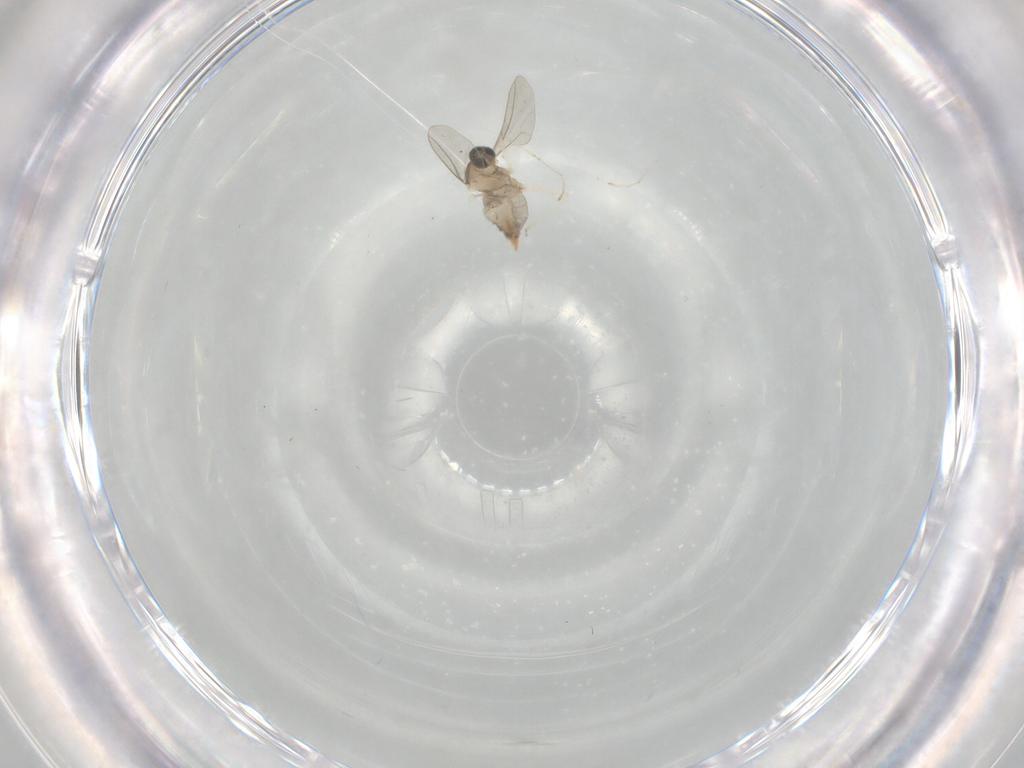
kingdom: Animalia
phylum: Arthropoda
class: Insecta
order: Diptera
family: Cecidomyiidae
